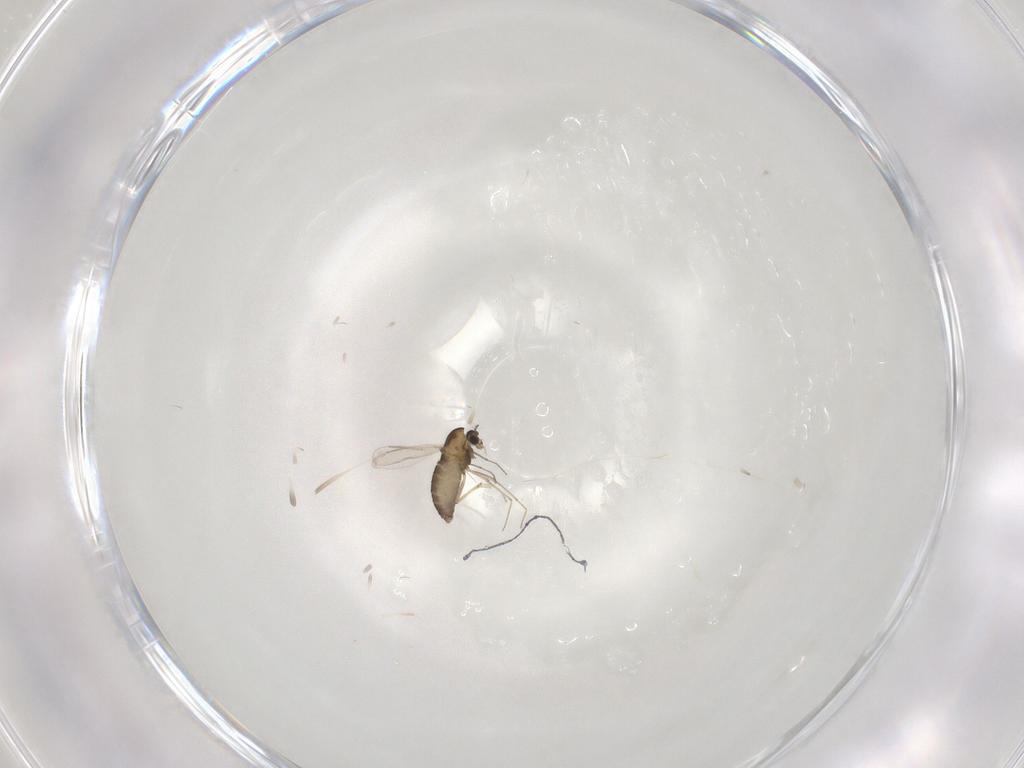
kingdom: Animalia
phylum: Arthropoda
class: Insecta
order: Diptera
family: Chironomidae
